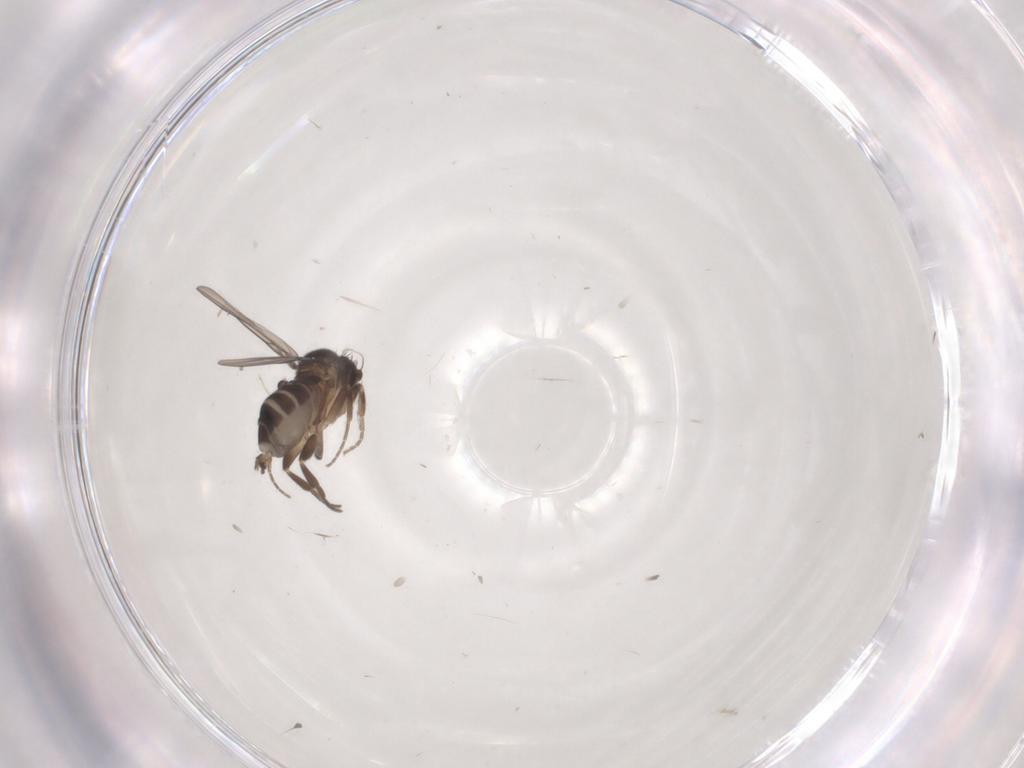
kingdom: Animalia
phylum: Arthropoda
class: Insecta
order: Diptera
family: Phoridae
